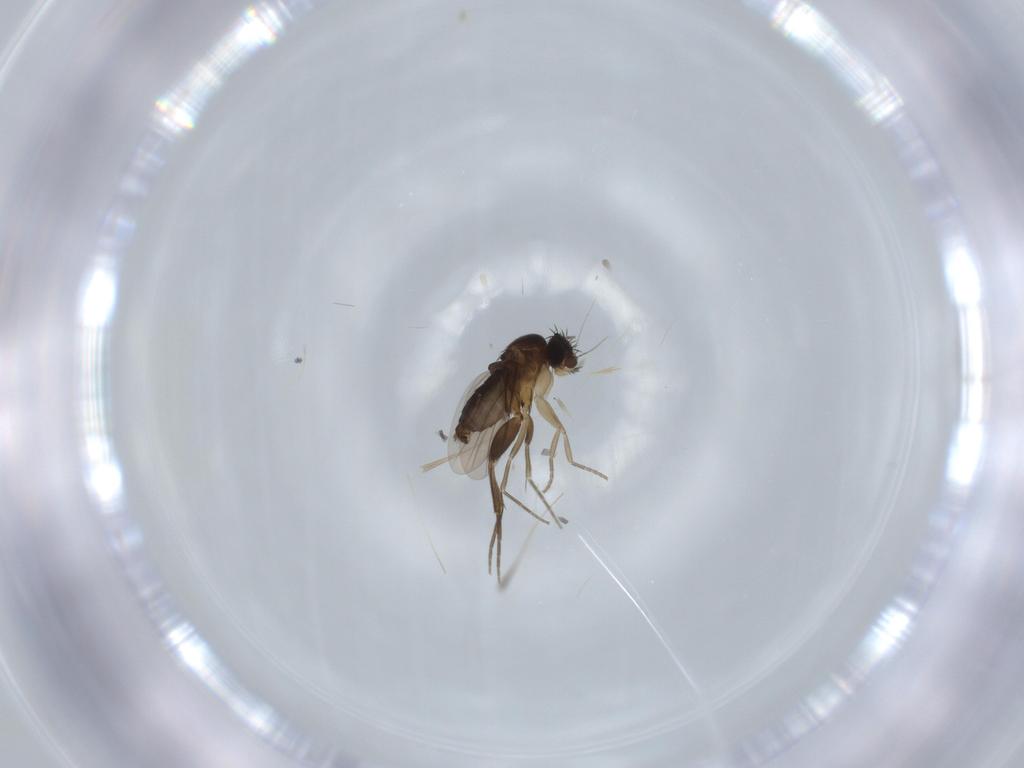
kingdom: Animalia
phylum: Arthropoda
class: Insecta
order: Diptera
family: Phoridae
